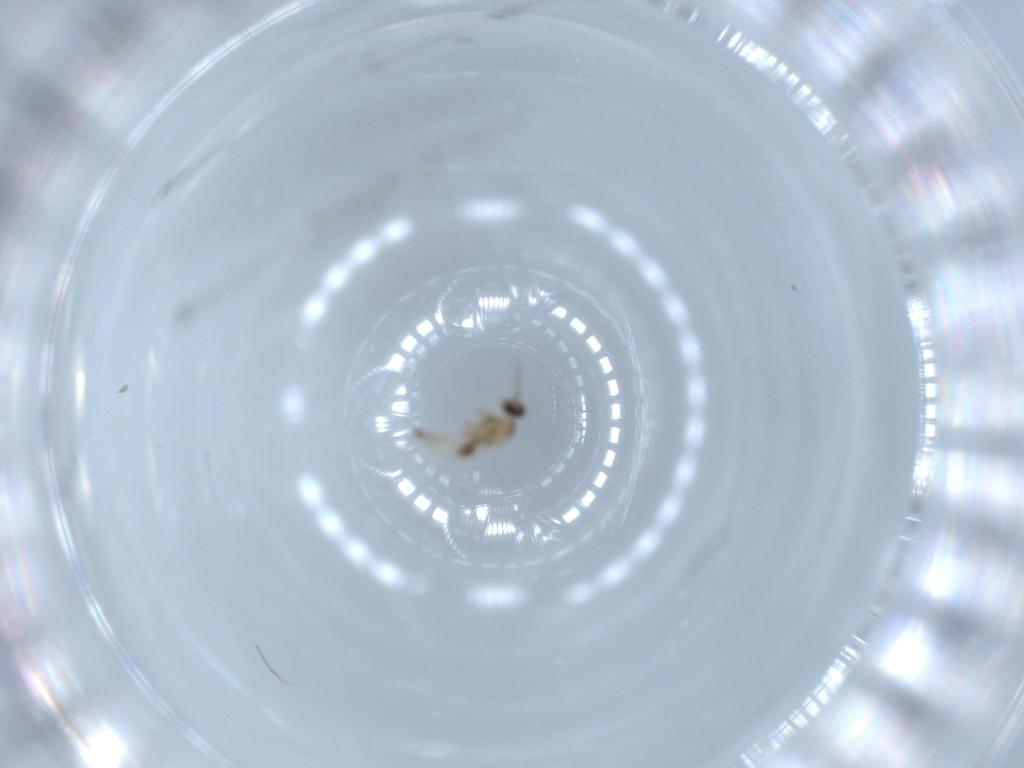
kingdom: Animalia
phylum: Arthropoda
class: Insecta
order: Diptera
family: Cecidomyiidae
